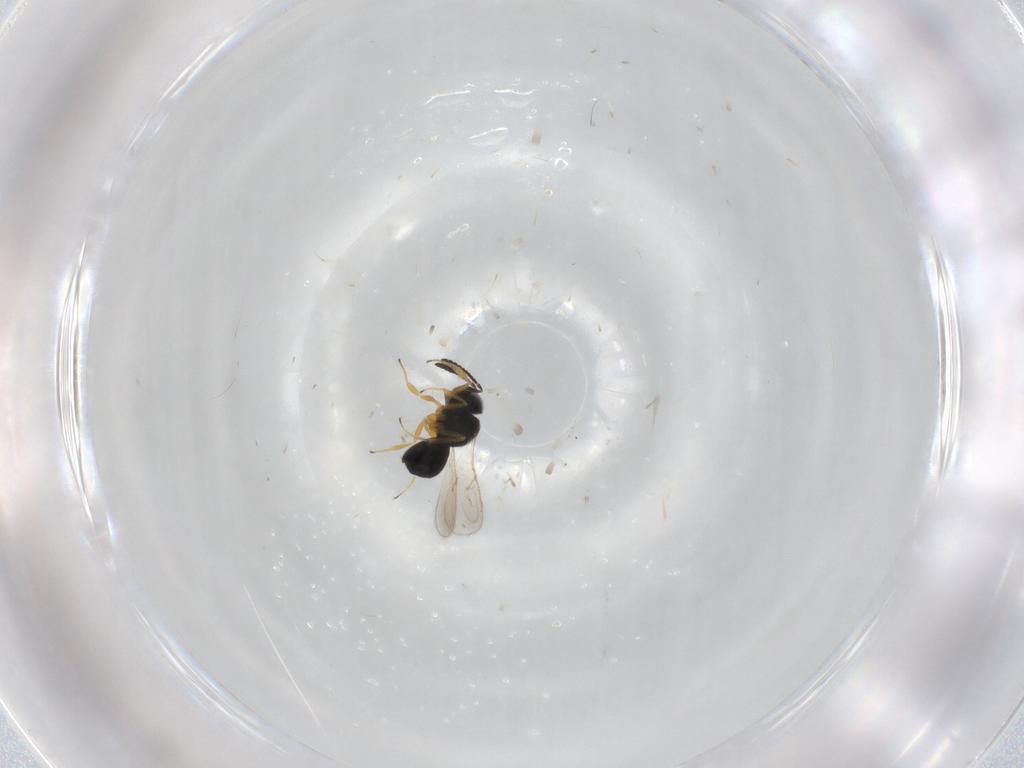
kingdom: Animalia
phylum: Arthropoda
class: Insecta
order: Hymenoptera
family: Scelionidae
